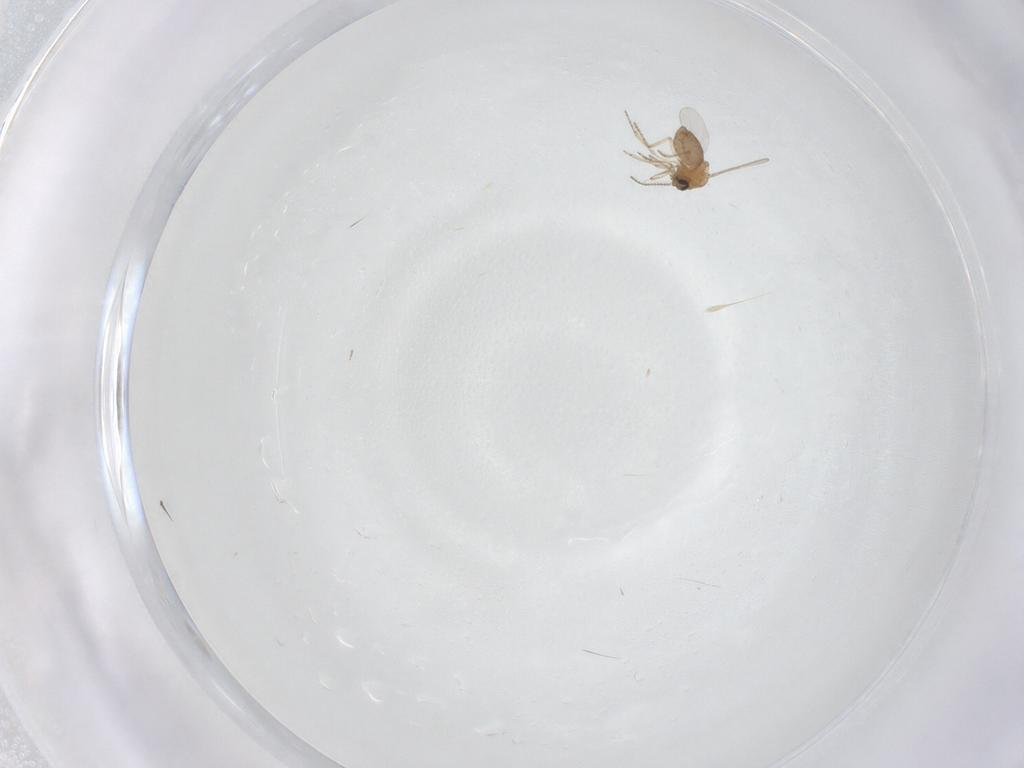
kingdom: Animalia
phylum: Arthropoda
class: Insecta
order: Diptera
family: Ceratopogonidae
